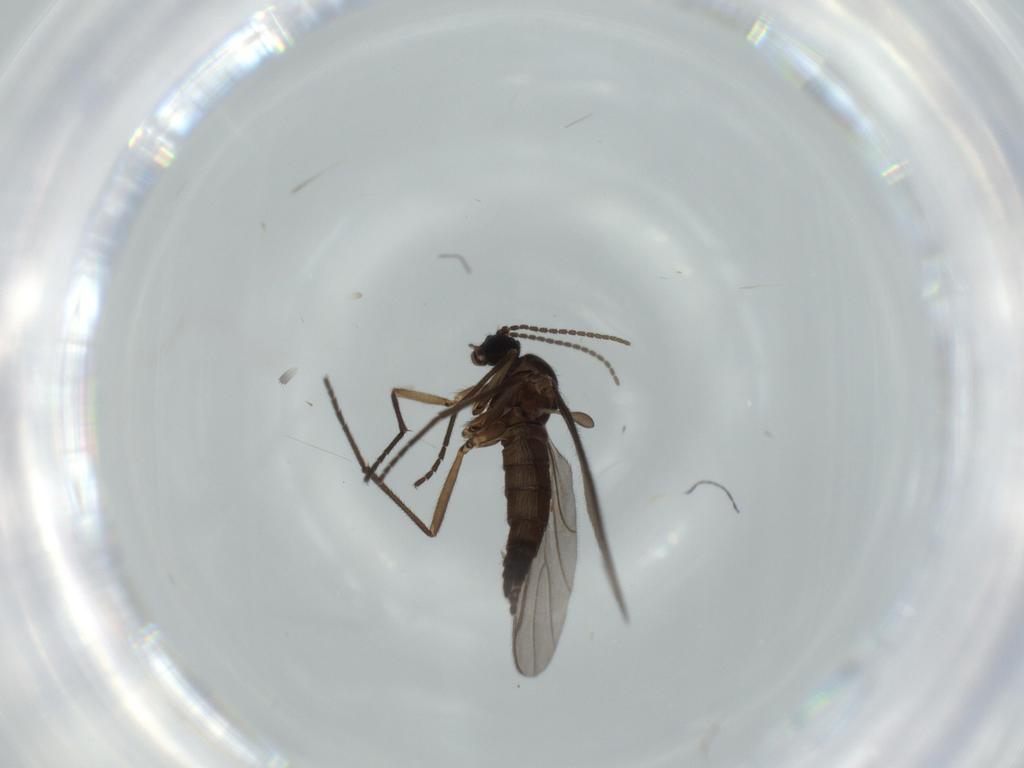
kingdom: Animalia
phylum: Arthropoda
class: Insecta
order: Diptera
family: Sciaridae
